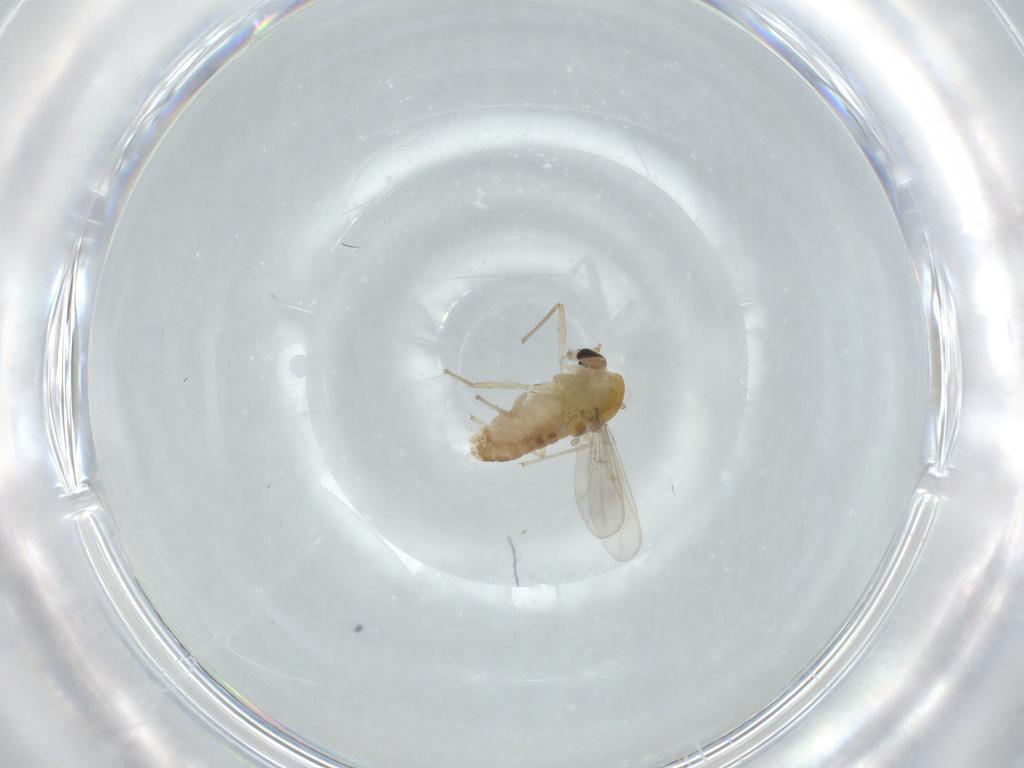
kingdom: Animalia
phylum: Arthropoda
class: Insecta
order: Diptera
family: Chironomidae
